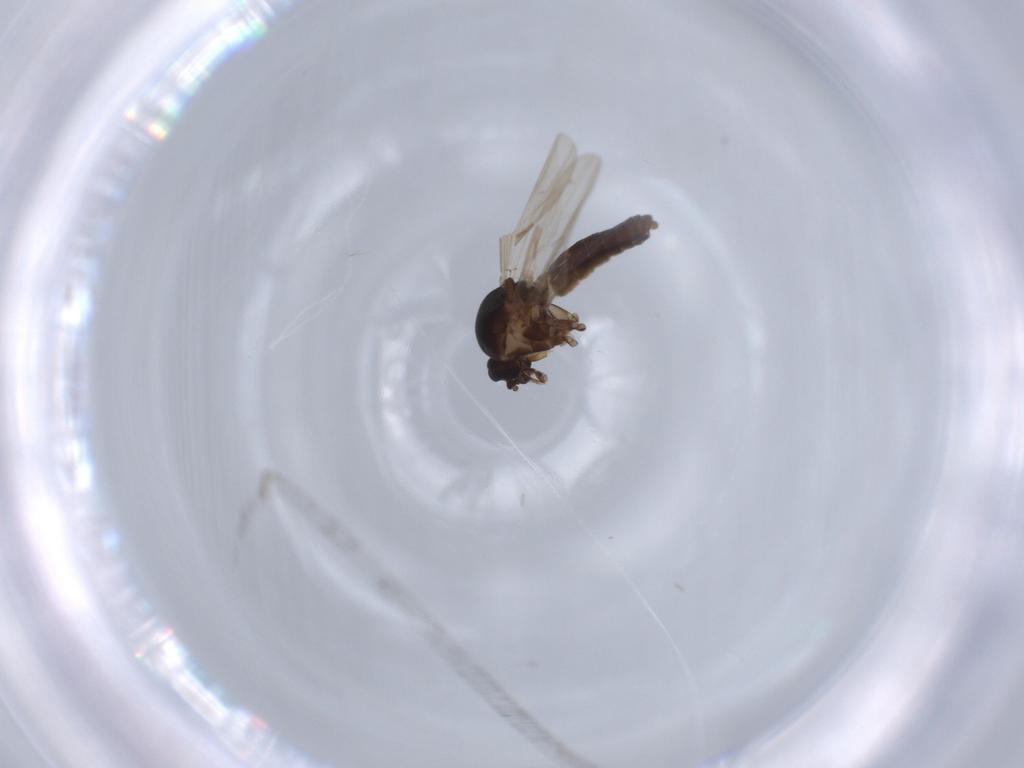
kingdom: Animalia
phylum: Arthropoda
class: Insecta
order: Diptera
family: Ceratopogonidae
